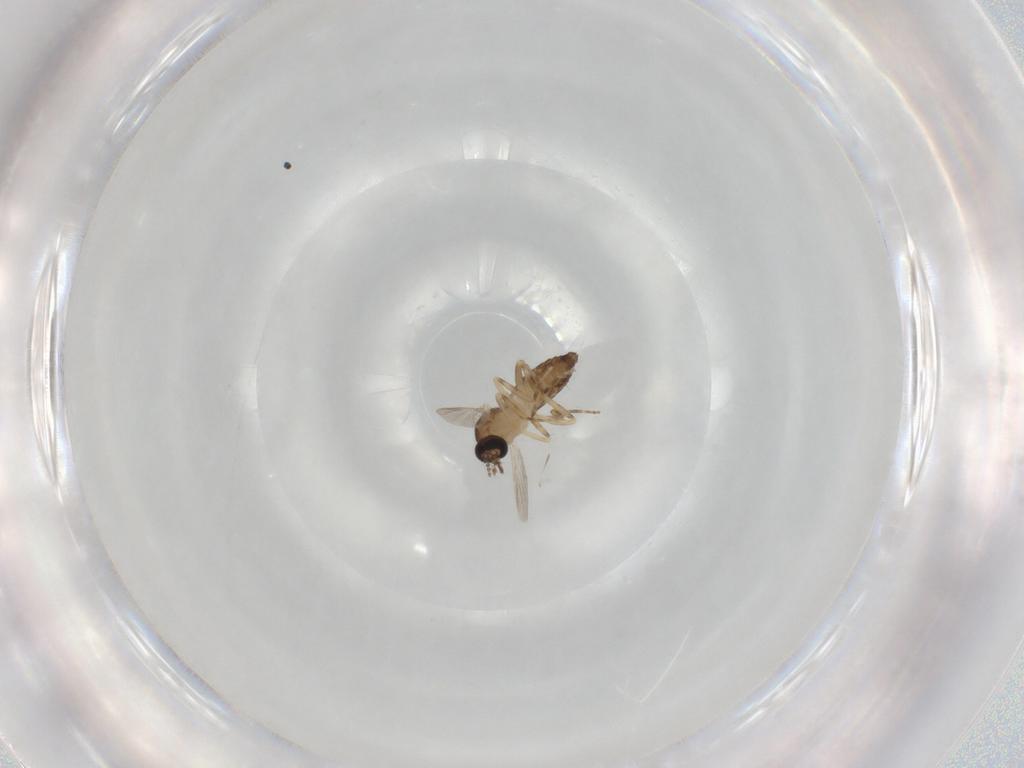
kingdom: Animalia
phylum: Arthropoda
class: Insecta
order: Diptera
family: Ceratopogonidae
